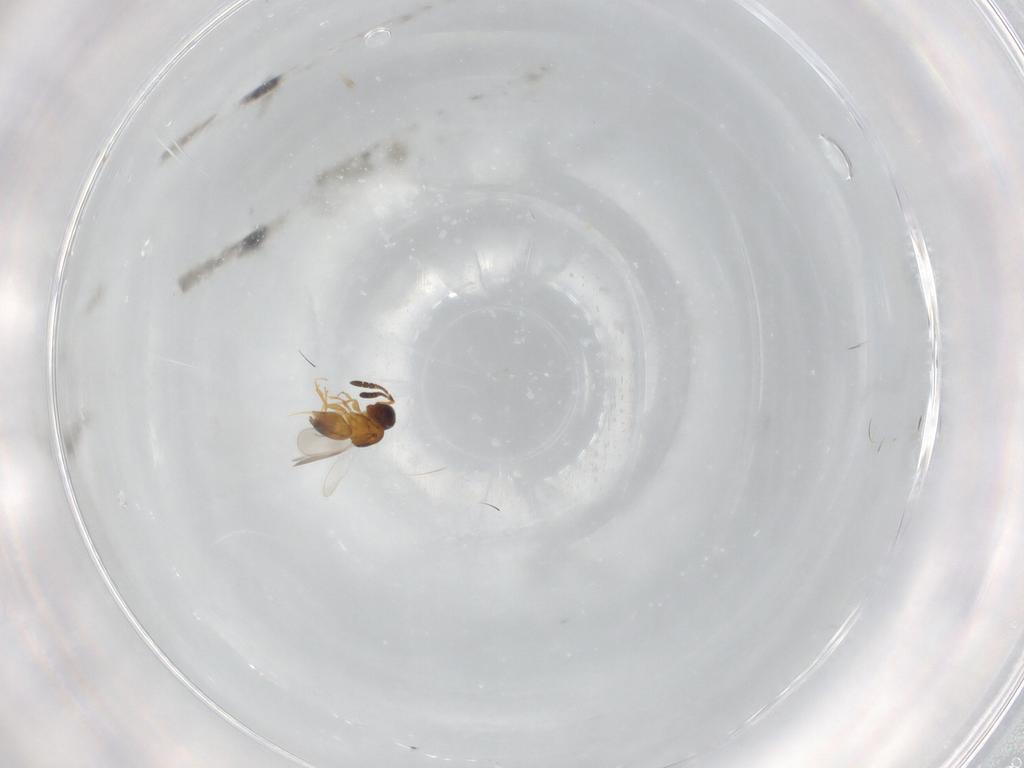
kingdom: Animalia
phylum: Arthropoda
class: Insecta
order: Hymenoptera
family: Ceraphronidae
